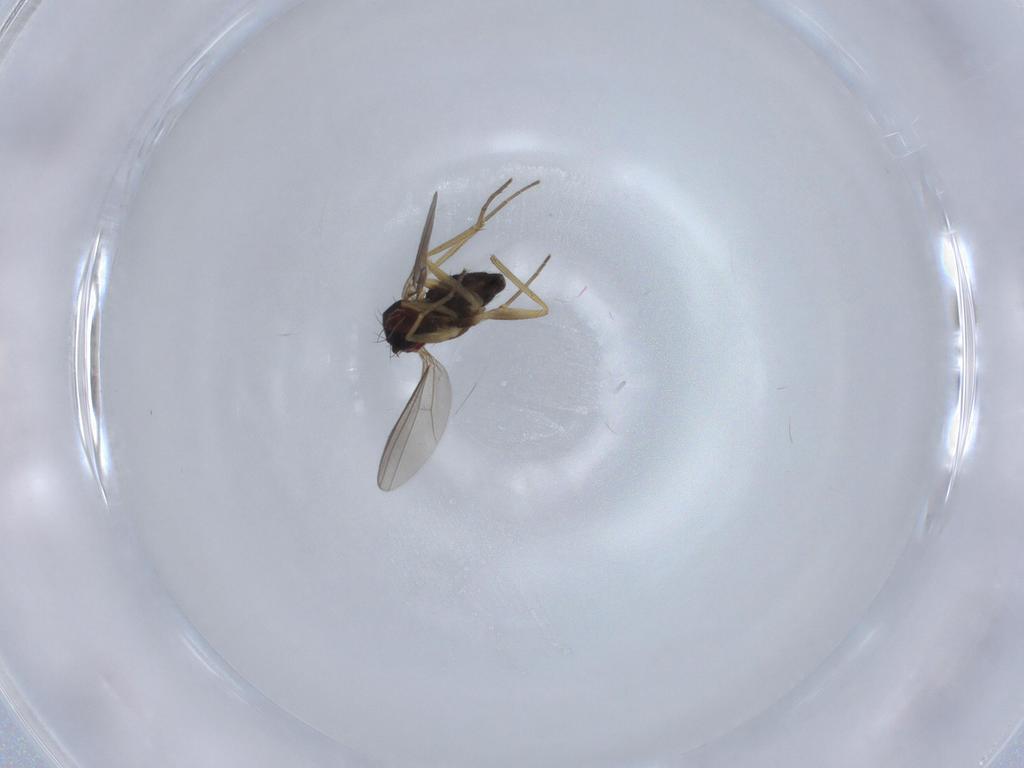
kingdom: Animalia
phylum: Arthropoda
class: Insecta
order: Diptera
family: Dolichopodidae
